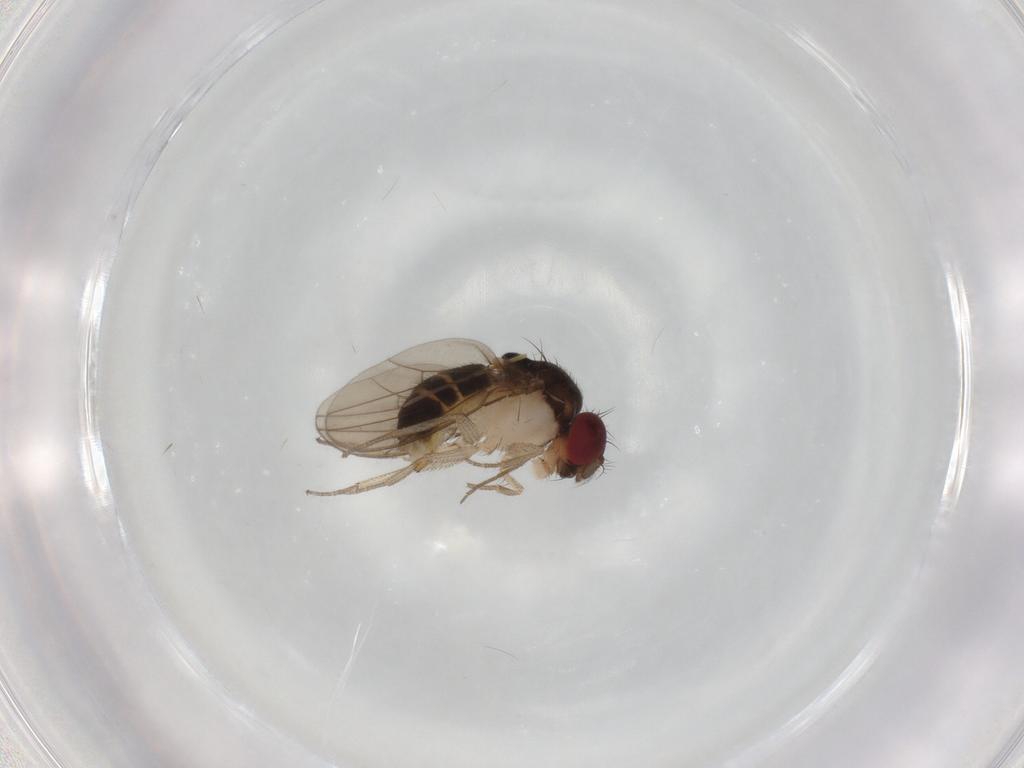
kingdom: Animalia
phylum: Arthropoda
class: Insecta
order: Diptera
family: Drosophilidae
